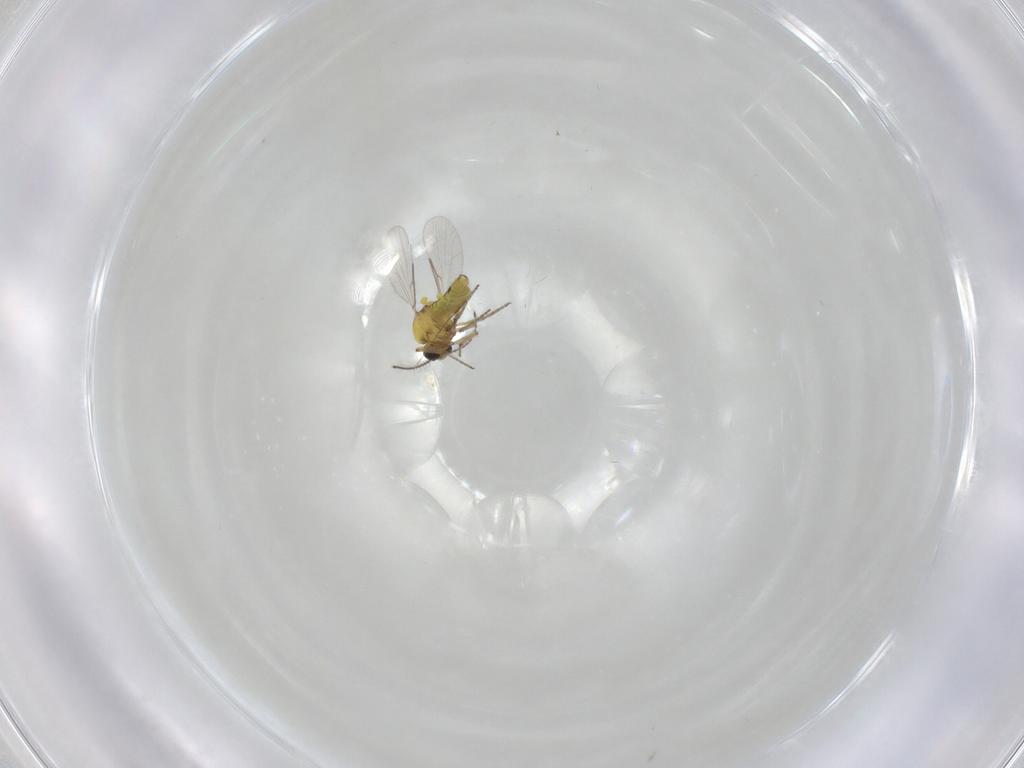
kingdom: Animalia
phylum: Arthropoda
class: Insecta
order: Diptera
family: Ceratopogonidae
